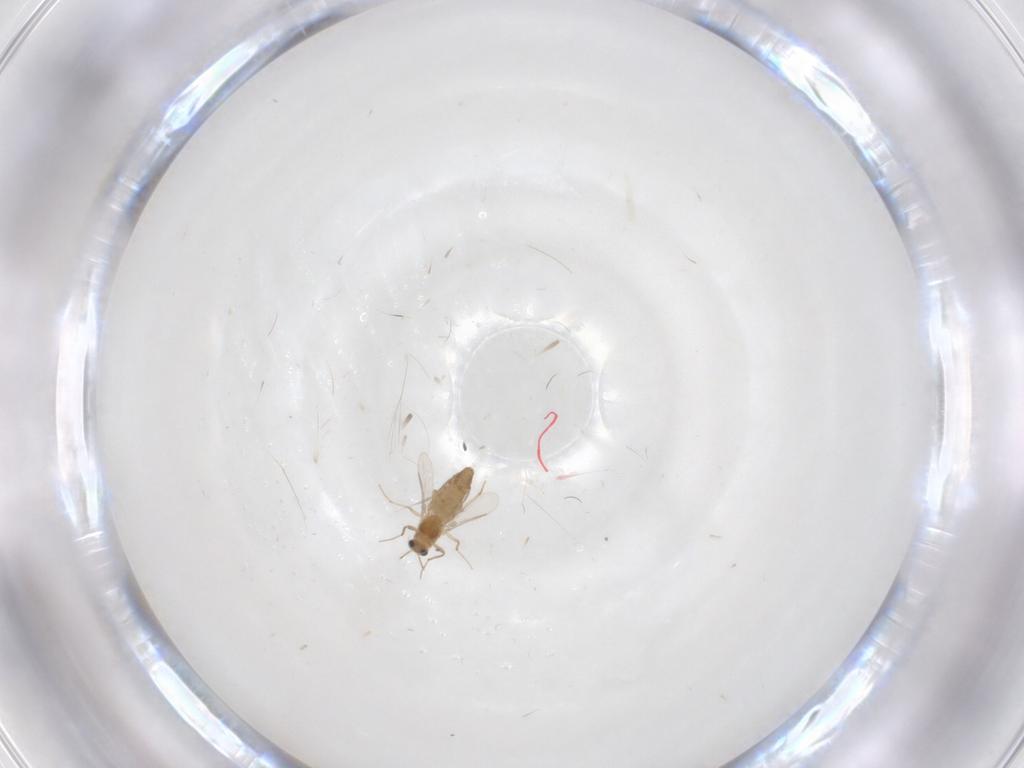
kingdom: Animalia
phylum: Arthropoda
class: Insecta
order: Diptera
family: Chironomidae
